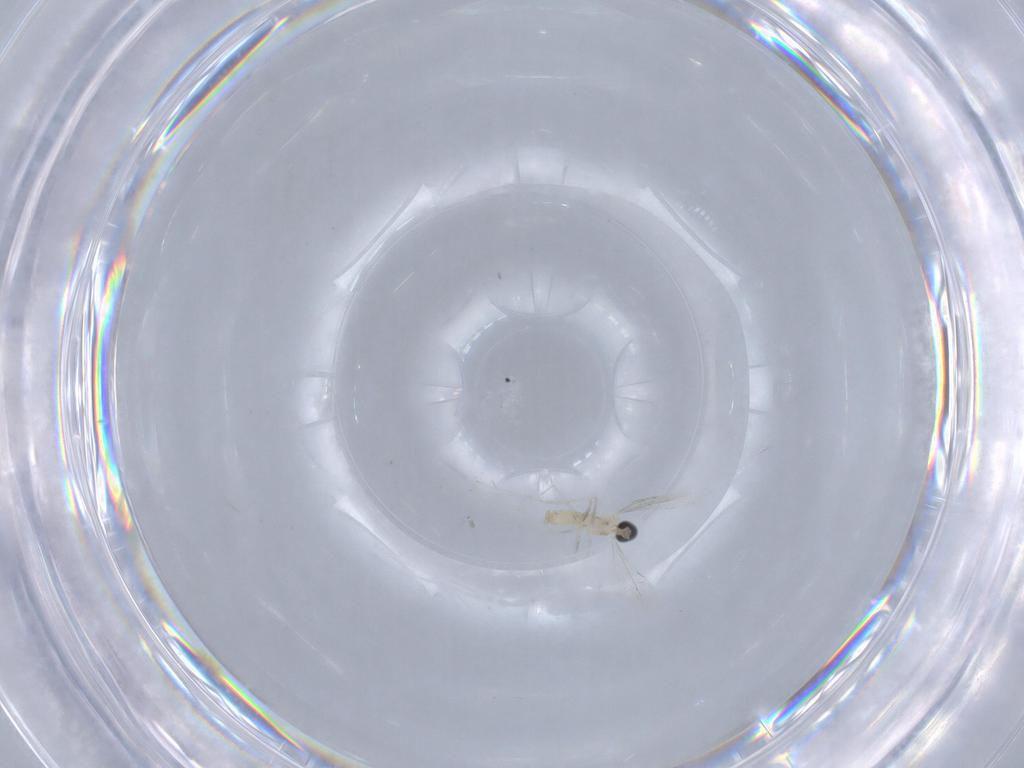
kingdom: Animalia
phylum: Arthropoda
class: Insecta
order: Diptera
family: Cecidomyiidae
